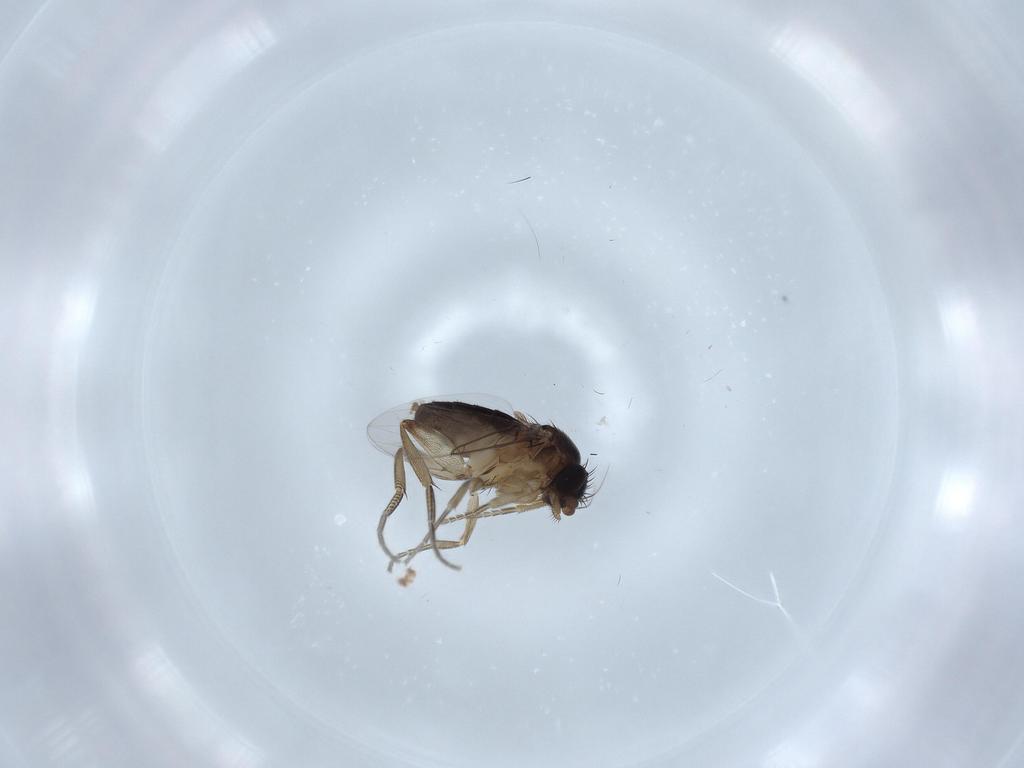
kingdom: Animalia
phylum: Arthropoda
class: Insecta
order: Diptera
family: Phoridae
